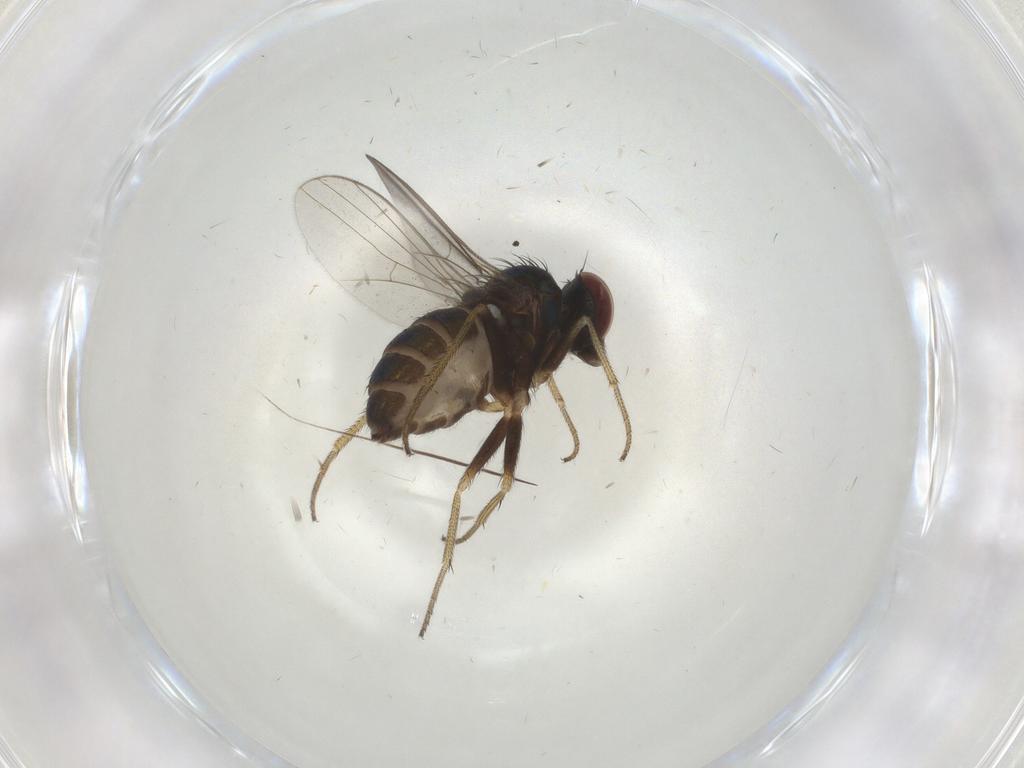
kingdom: Animalia
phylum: Arthropoda
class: Insecta
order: Diptera
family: Dolichopodidae
